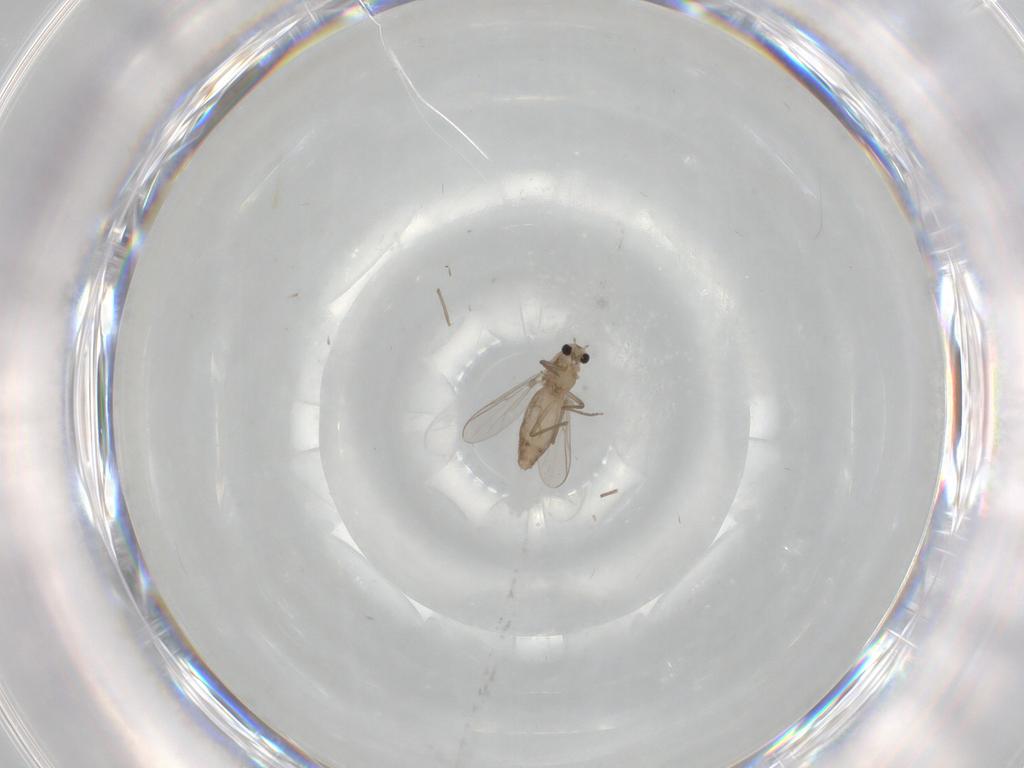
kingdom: Animalia
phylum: Arthropoda
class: Insecta
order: Diptera
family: Chironomidae
